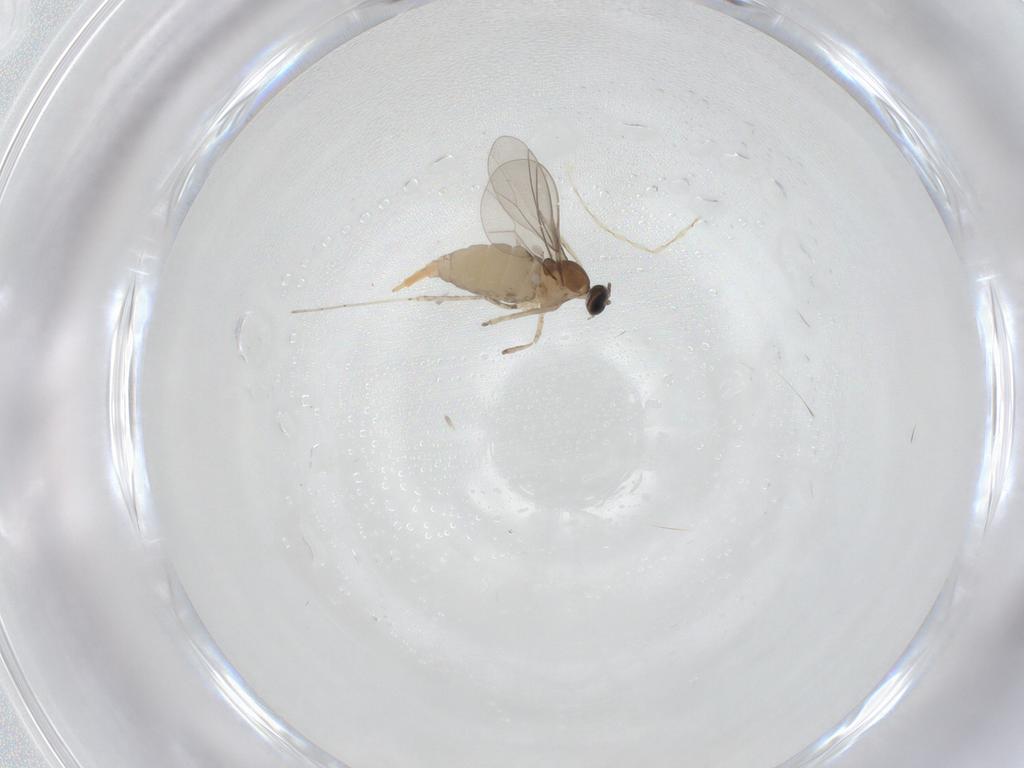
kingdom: Animalia
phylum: Arthropoda
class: Insecta
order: Diptera
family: Cecidomyiidae
